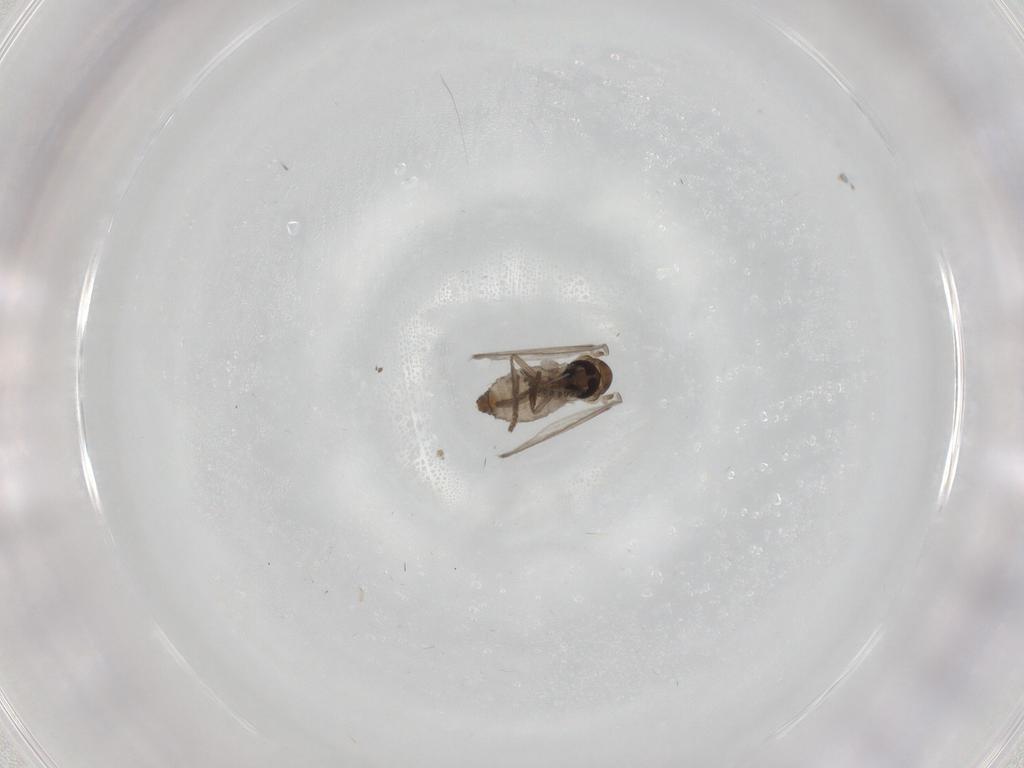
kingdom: Animalia
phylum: Arthropoda
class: Insecta
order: Diptera
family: Psychodidae
